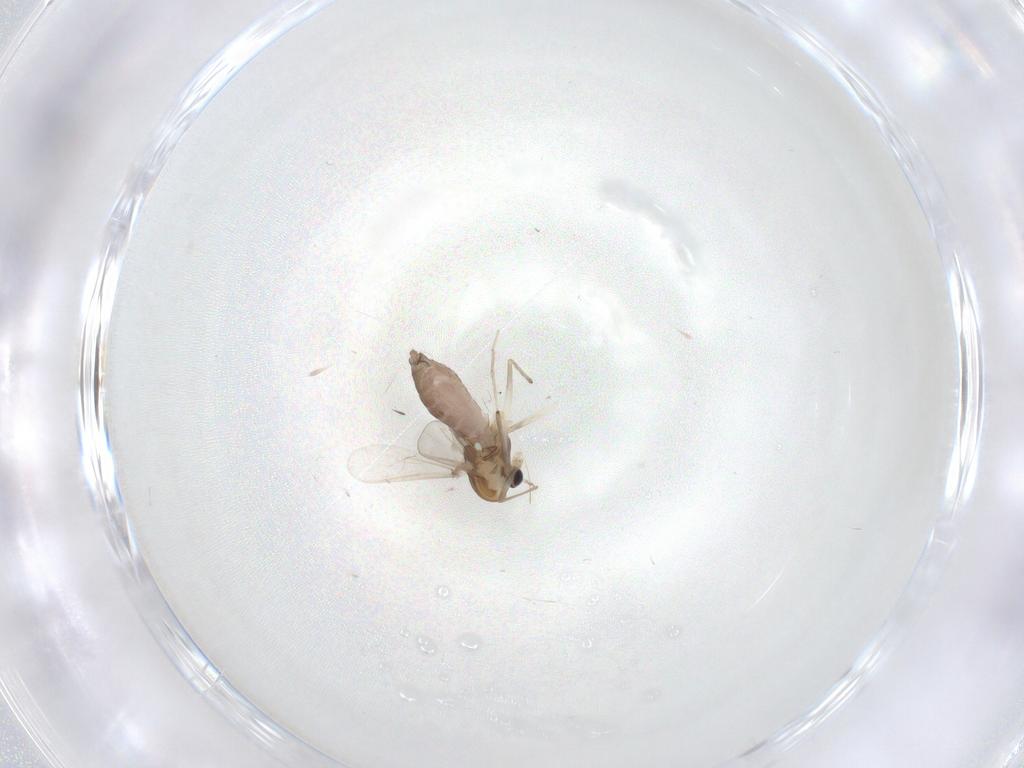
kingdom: Animalia
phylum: Arthropoda
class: Insecta
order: Diptera
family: Chironomidae
